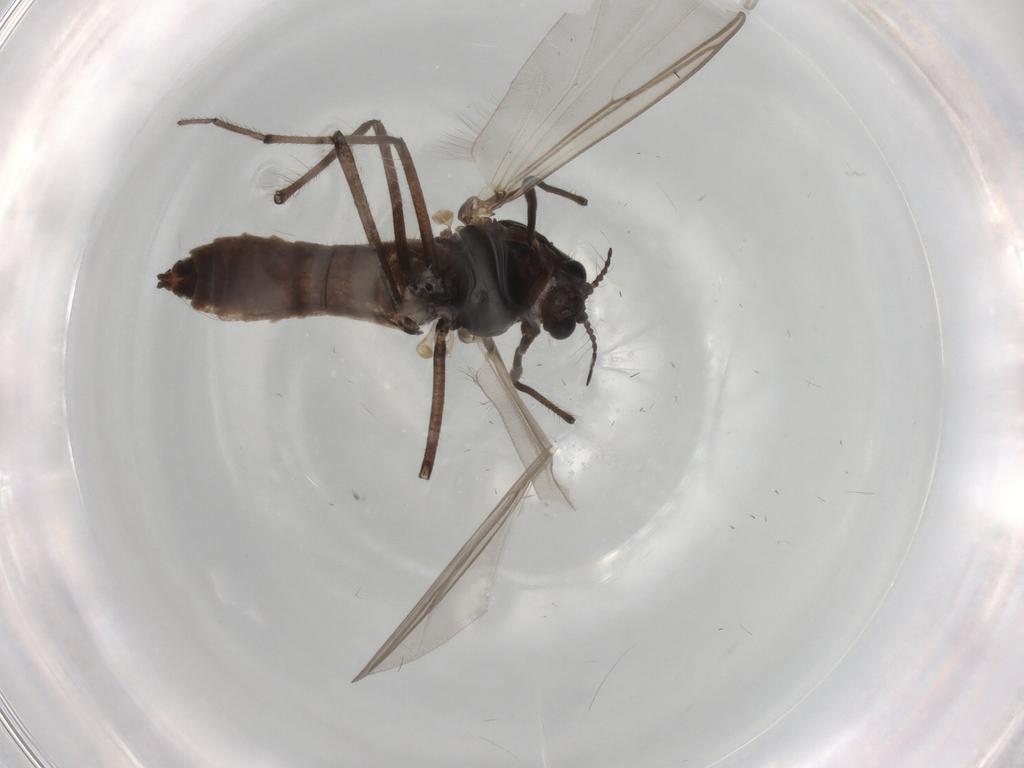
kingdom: Animalia
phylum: Arthropoda
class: Insecta
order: Diptera
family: Chironomidae
